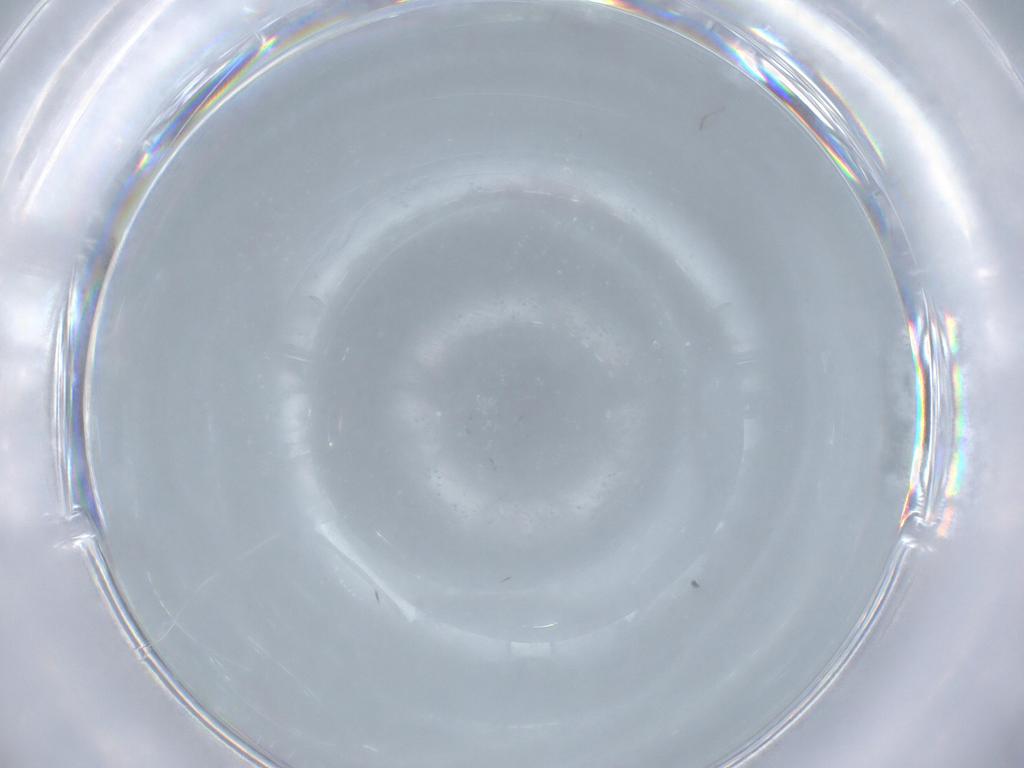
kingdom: Animalia
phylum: Arthropoda
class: Insecta
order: Diptera
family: Dolichopodidae
